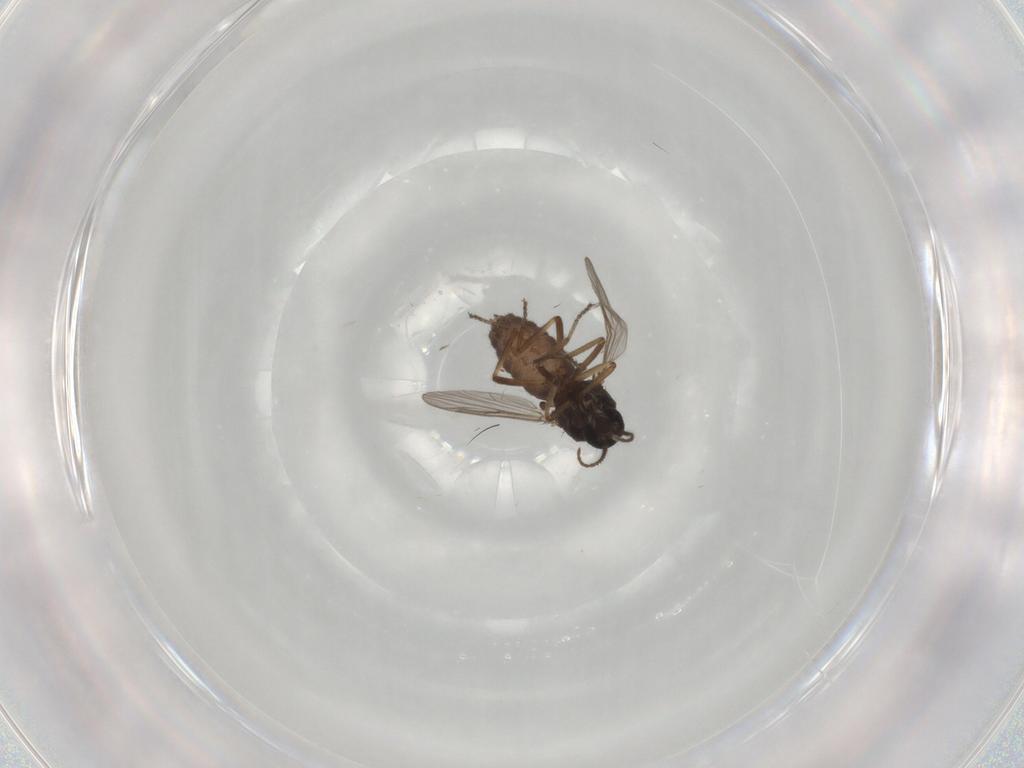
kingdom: Animalia
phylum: Arthropoda
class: Insecta
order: Diptera
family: Ceratopogonidae
